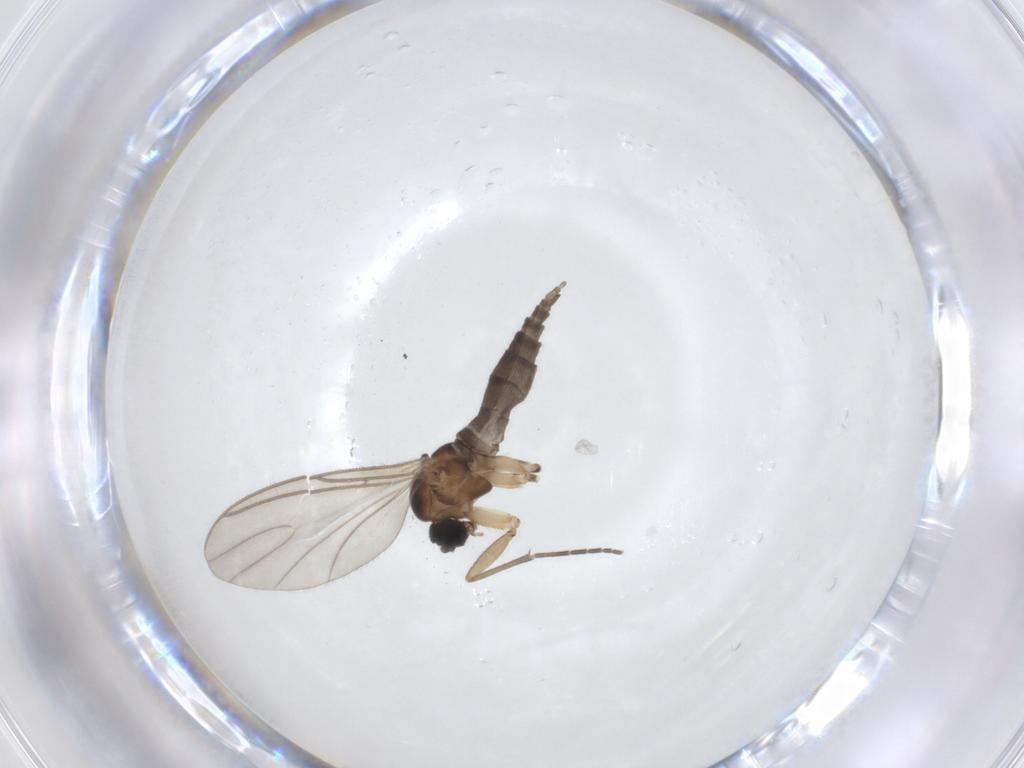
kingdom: Animalia
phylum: Arthropoda
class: Insecta
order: Diptera
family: Sciaridae
